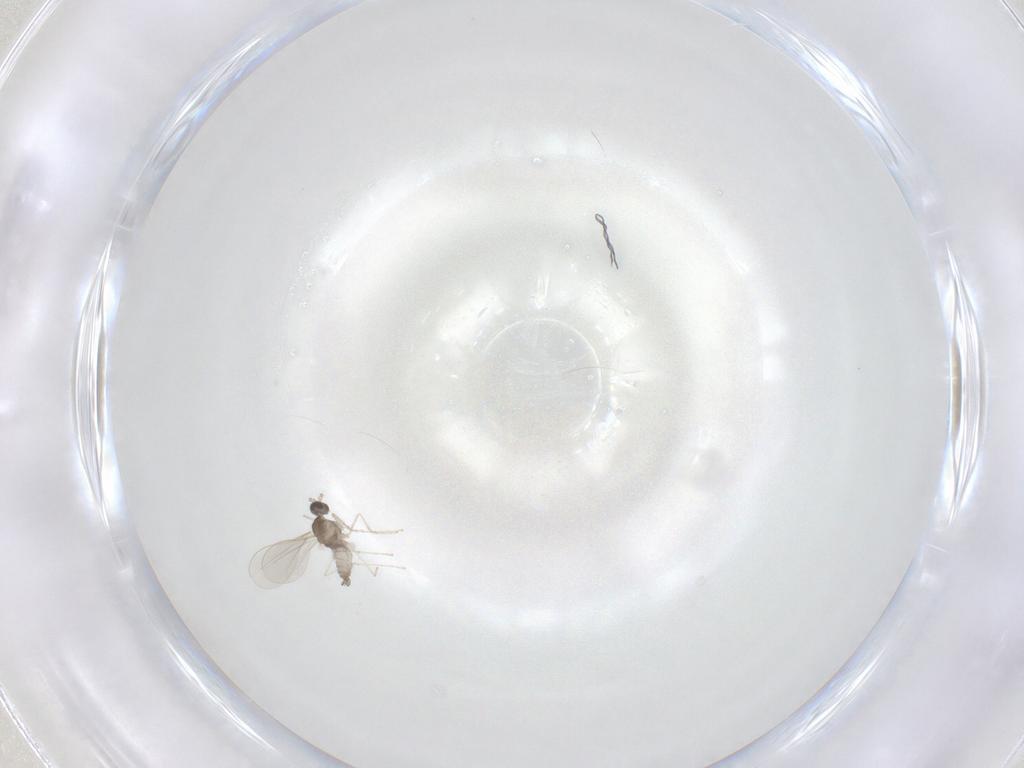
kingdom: Animalia
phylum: Arthropoda
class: Insecta
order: Diptera
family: Cecidomyiidae
